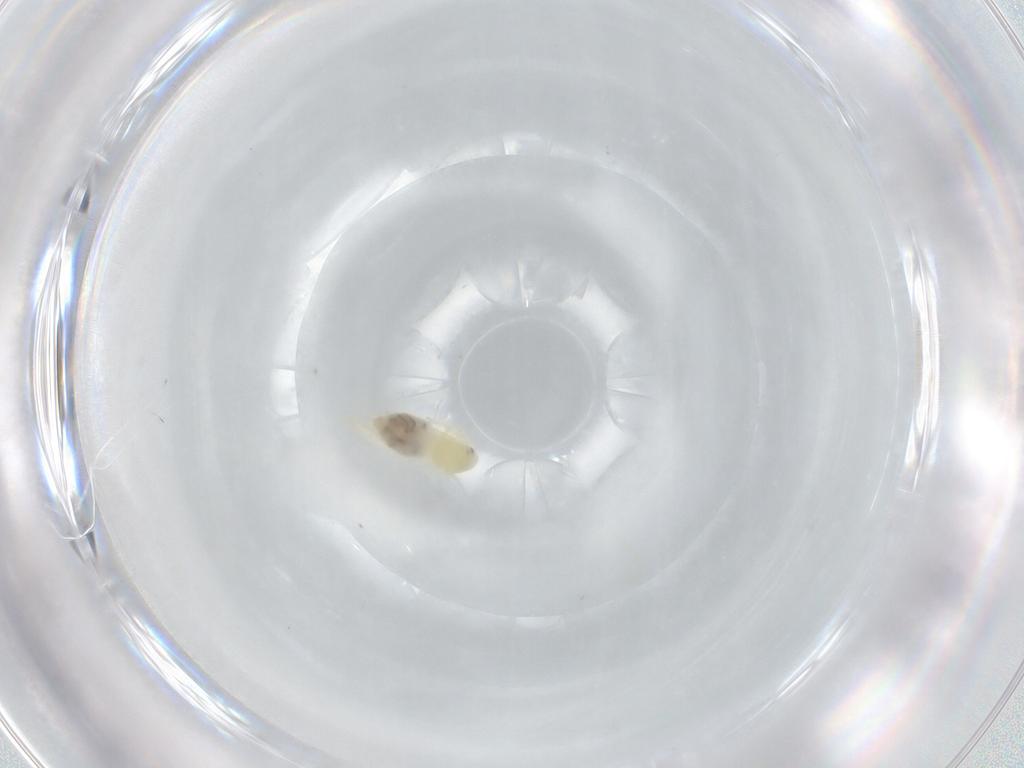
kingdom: Animalia
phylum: Arthropoda
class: Insecta
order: Hemiptera
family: Aleyrodidae
